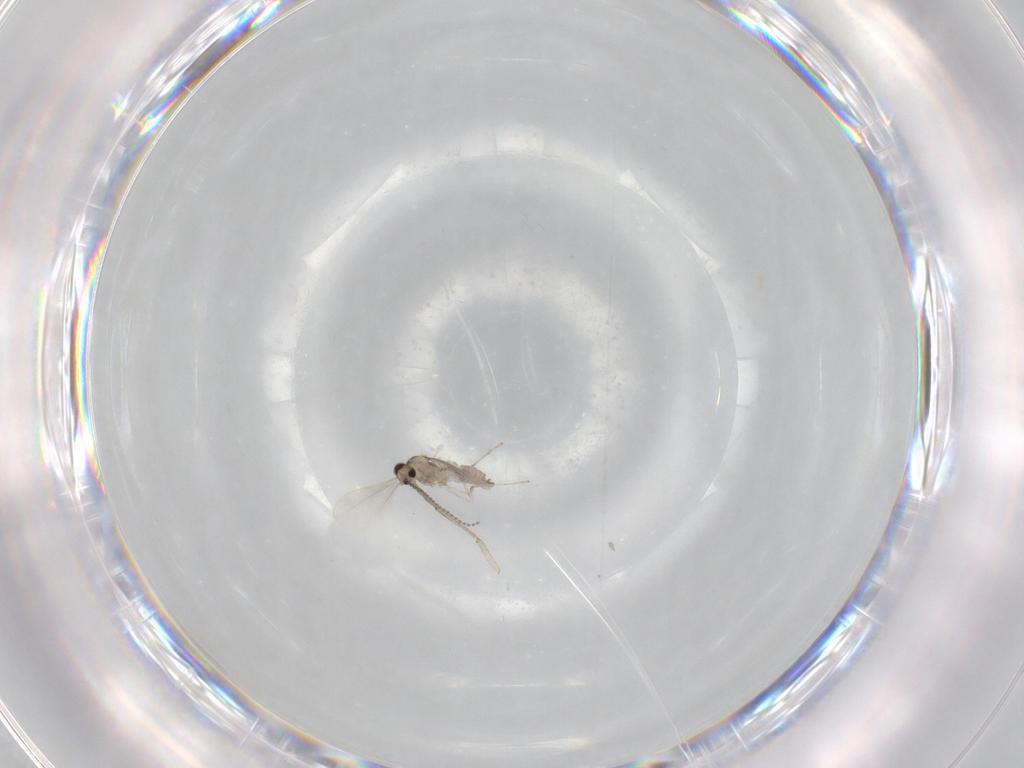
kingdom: Animalia
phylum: Arthropoda
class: Insecta
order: Diptera
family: Cecidomyiidae
